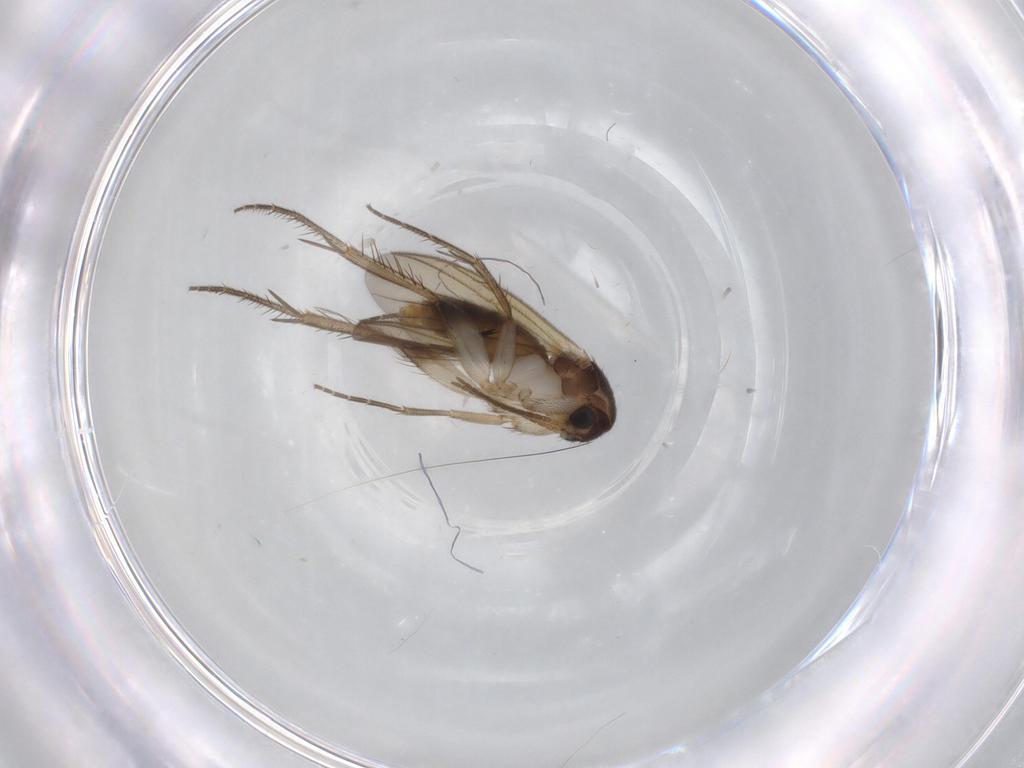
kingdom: Animalia
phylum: Arthropoda
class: Insecta
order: Diptera
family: Mycetophilidae
